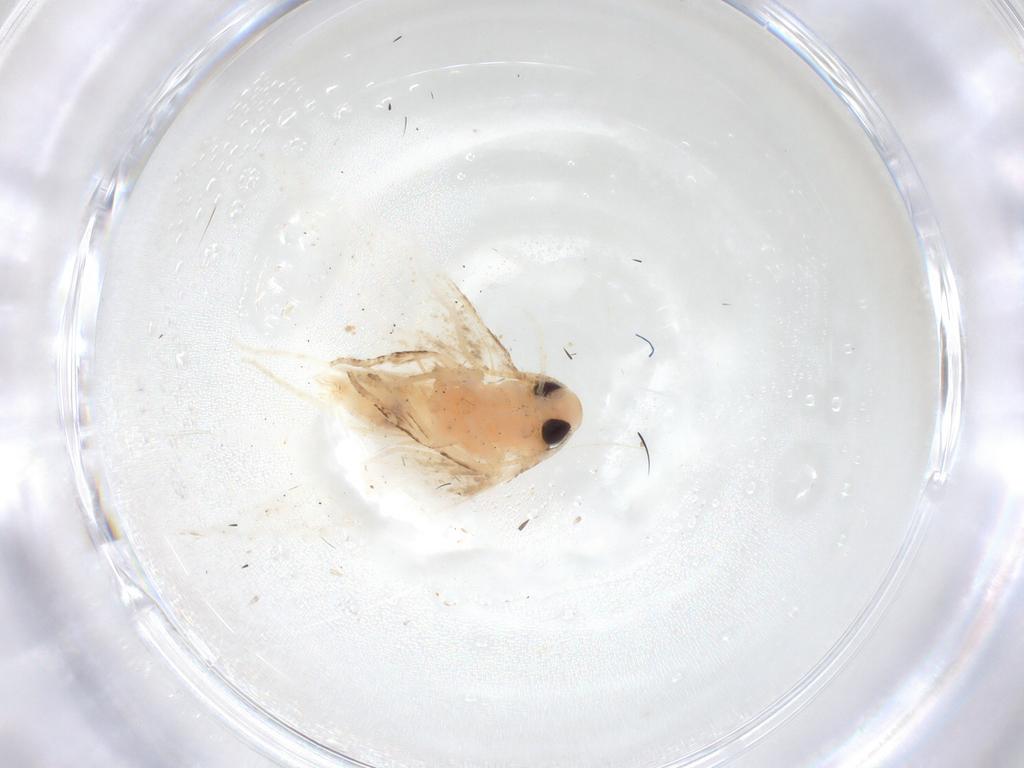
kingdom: Animalia
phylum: Arthropoda
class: Insecta
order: Lepidoptera
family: Cosmopterigidae
